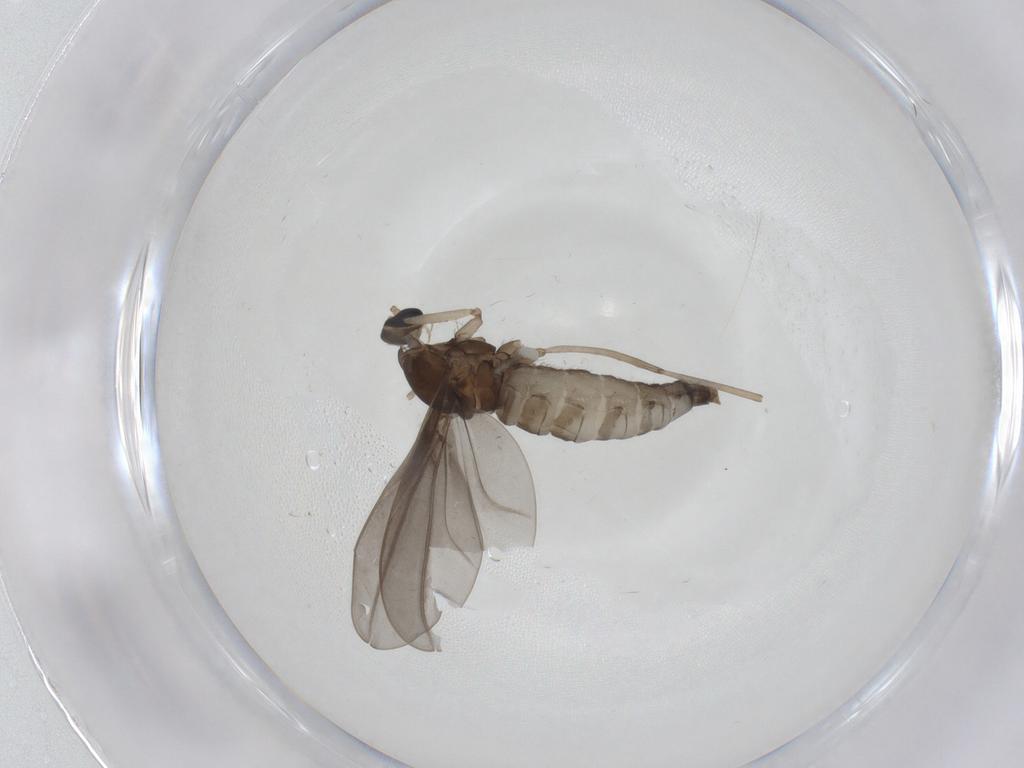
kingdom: Animalia
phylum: Arthropoda
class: Insecta
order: Diptera
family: Cecidomyiidae
